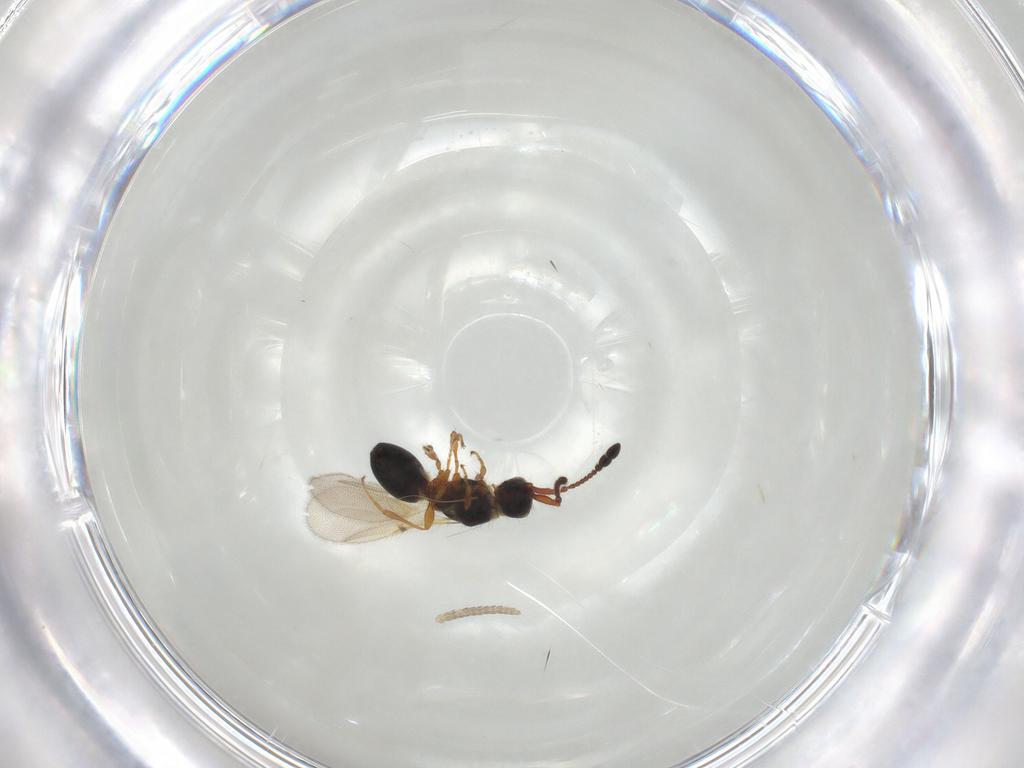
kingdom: Animalia
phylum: Arthropoda
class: Insecta
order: Hymenoptera
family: Diapriidae
